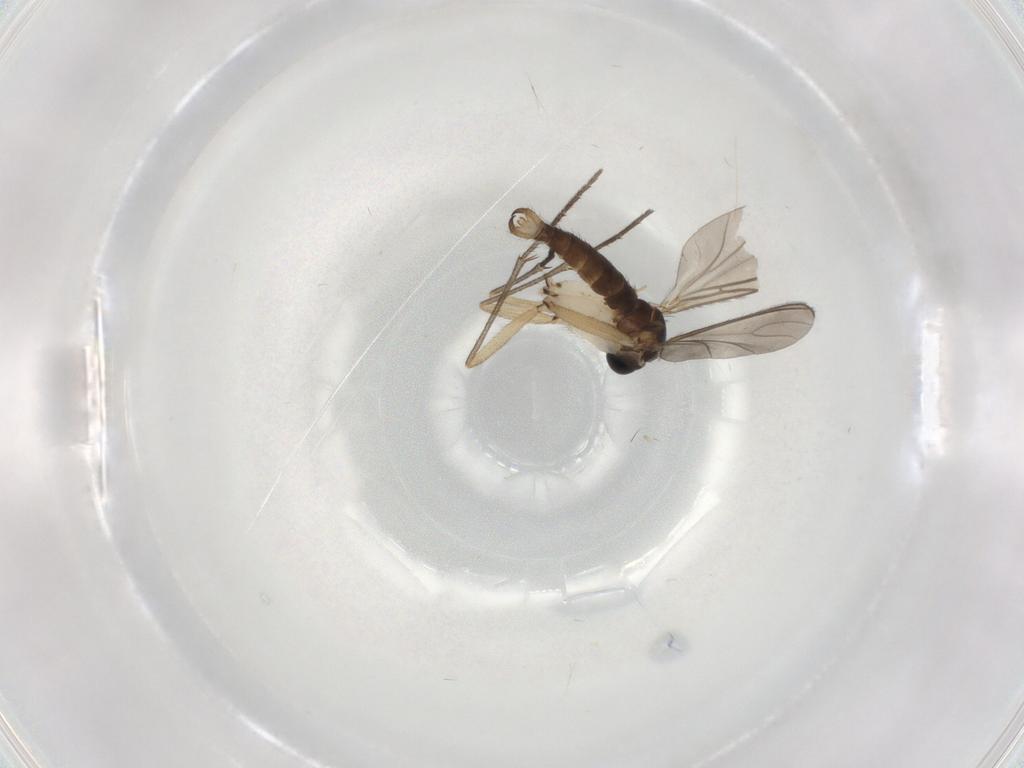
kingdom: Animalia
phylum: Arthropoda
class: Insecta
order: Diptera
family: Sciaridae
